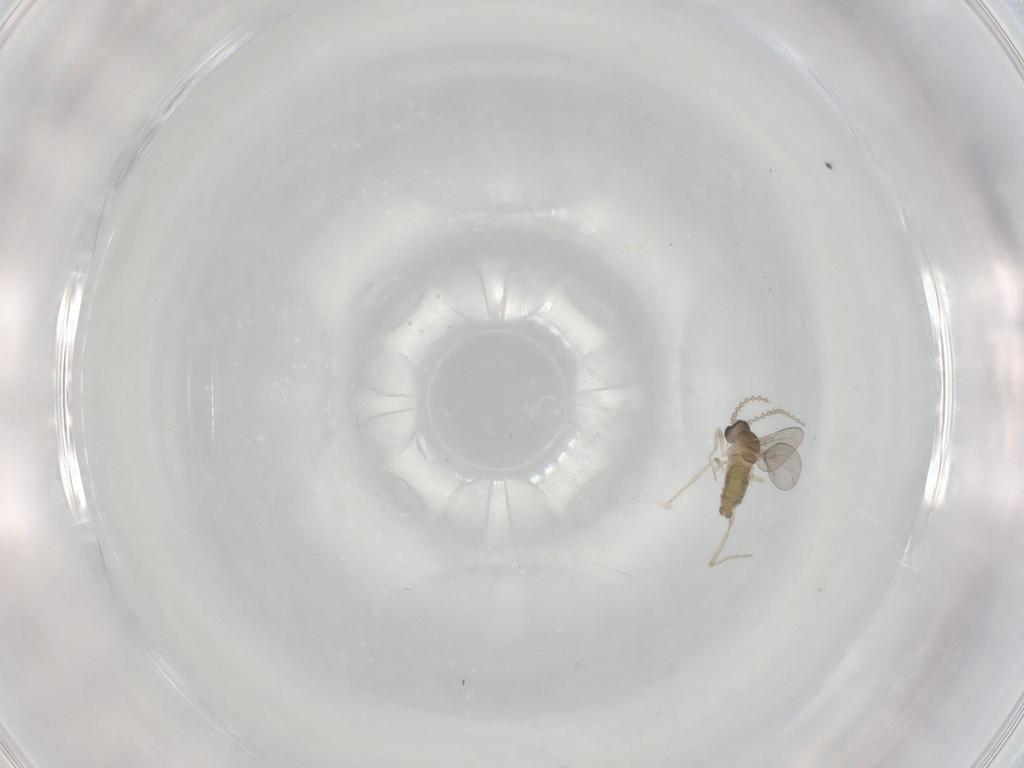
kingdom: Animalia
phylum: Arthropoda
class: Insecta
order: Diptera
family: Cecidomyiidae
